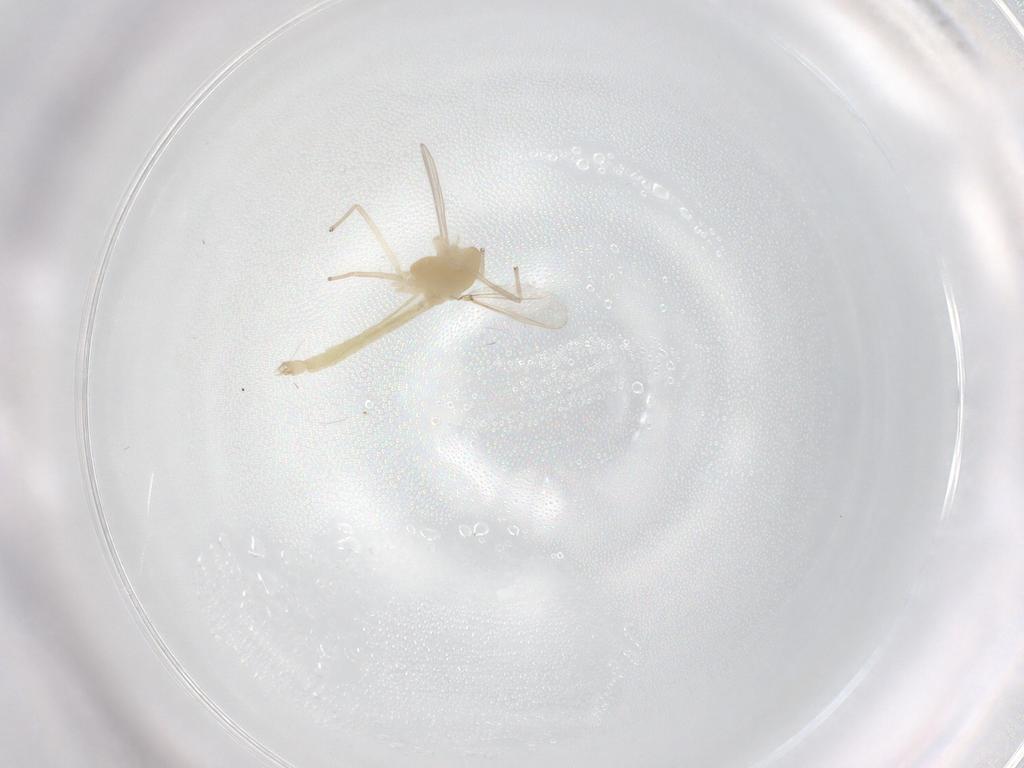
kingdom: Animalia
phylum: Arthropoda
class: Insecta
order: Diptera
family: Chironomidae
